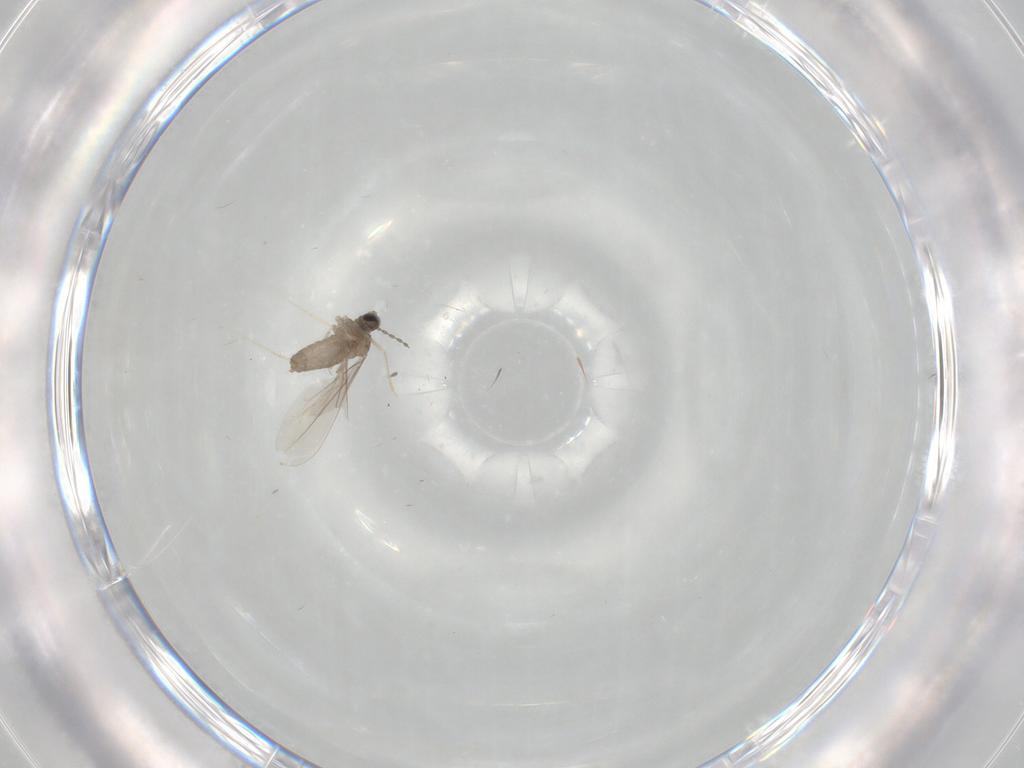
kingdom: Animalia
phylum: Arthropoda
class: Insecta
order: Diptera
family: Cecidomyiidae
